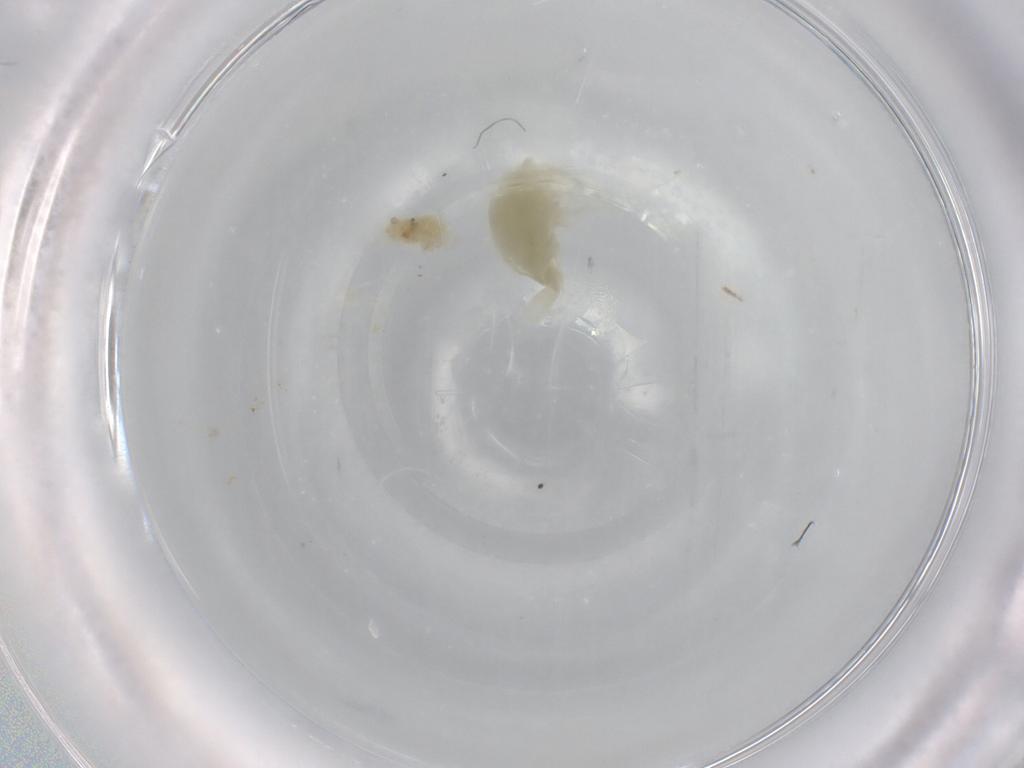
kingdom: Animalia
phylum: Arthropoda
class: Copepoda
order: Calanoida
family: Diaptomidae
